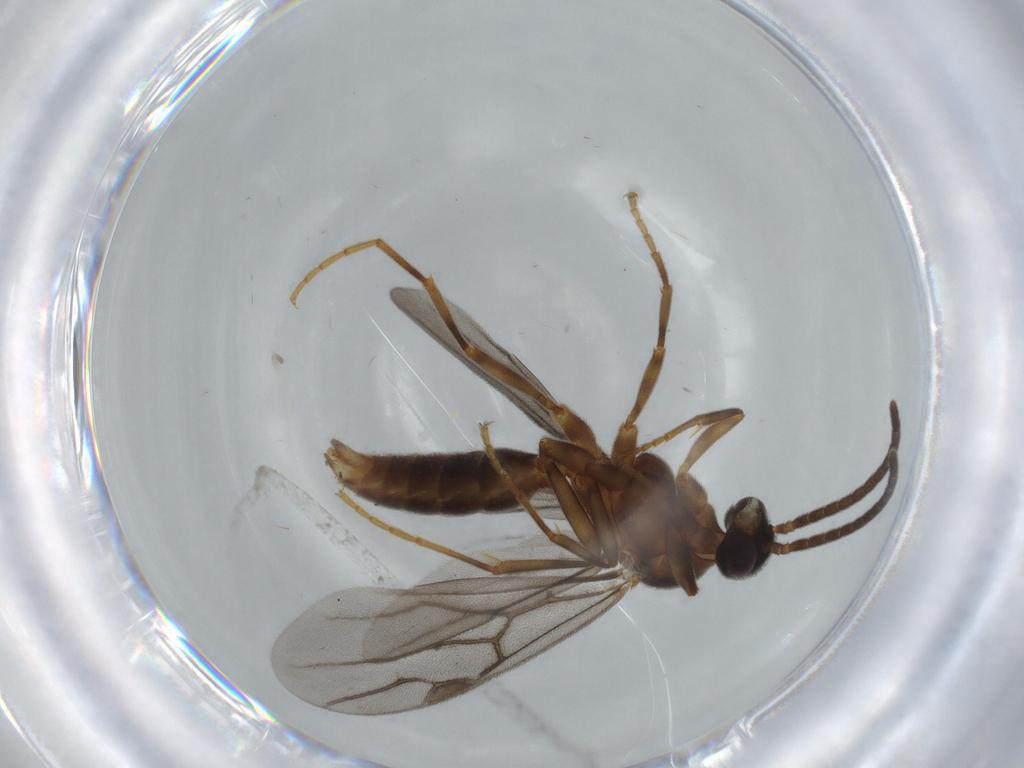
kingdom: Animalia
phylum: Arthropoda
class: Insecta
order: Hymenoptera
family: Formicidae
